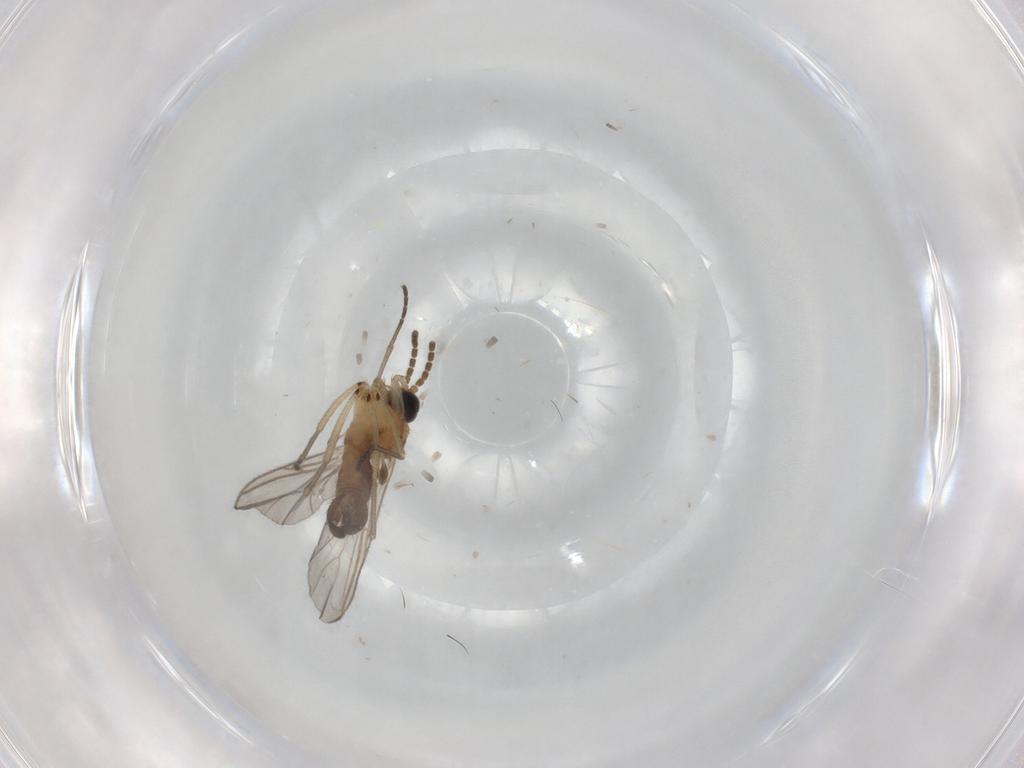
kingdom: Animalia
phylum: Arthropoda
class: Insecta
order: Diptera
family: Sciaridae
